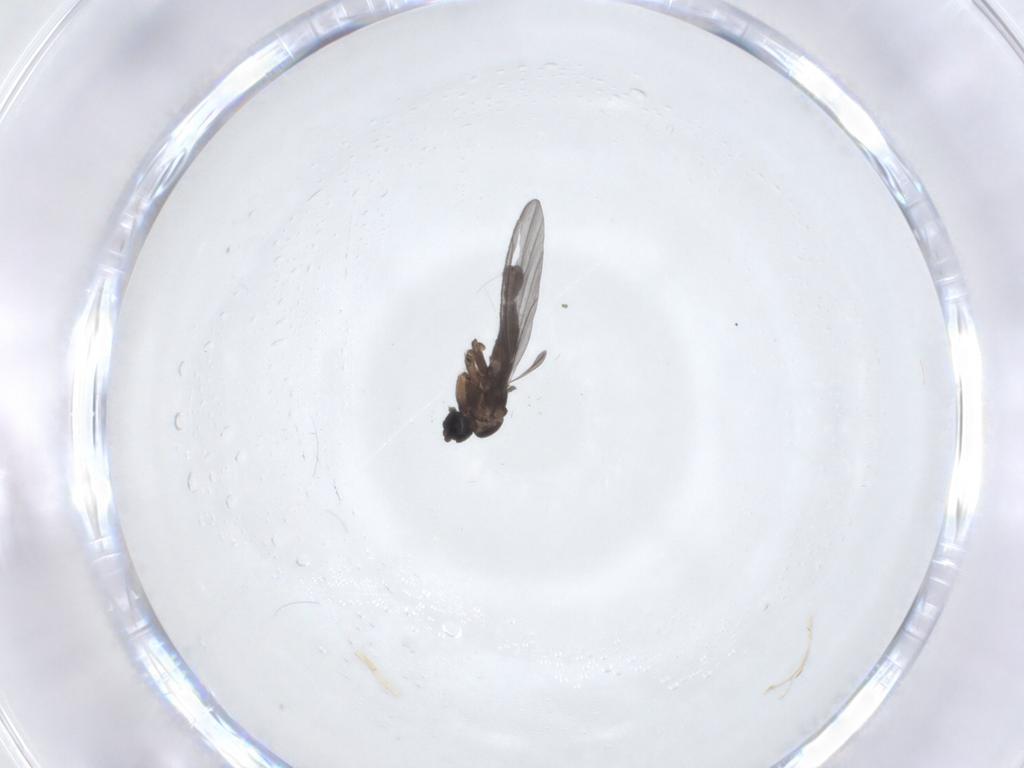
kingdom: Animalia
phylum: Arthropoda
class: Insecta
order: Diptera
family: Chironomidae
